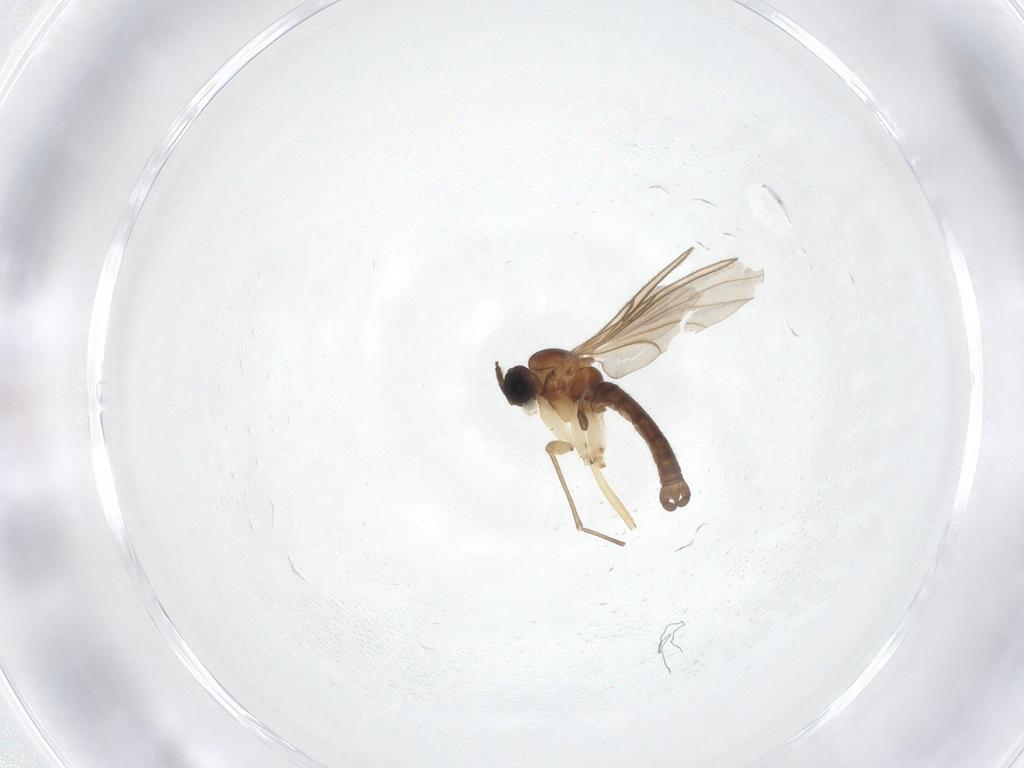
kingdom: Animalia
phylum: Arthropoda
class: Insecta
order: Diptera
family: Sciaridae
